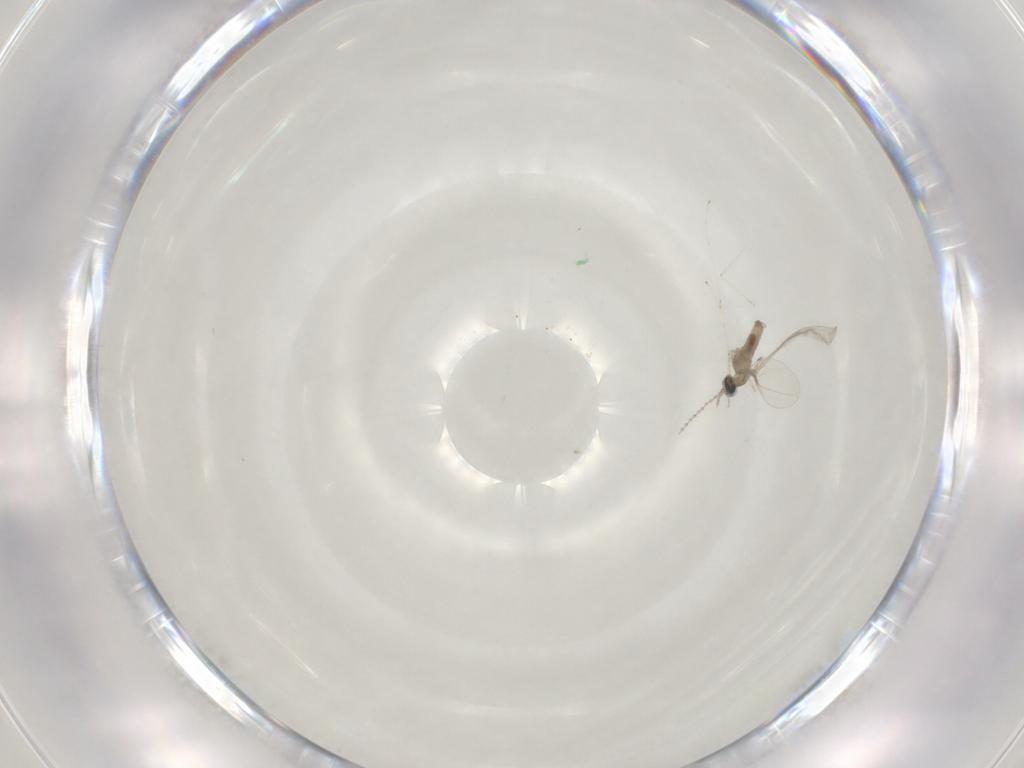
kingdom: Animalia
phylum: Arthropoda
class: Insecta
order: Diptera
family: Cecidomyiidae
